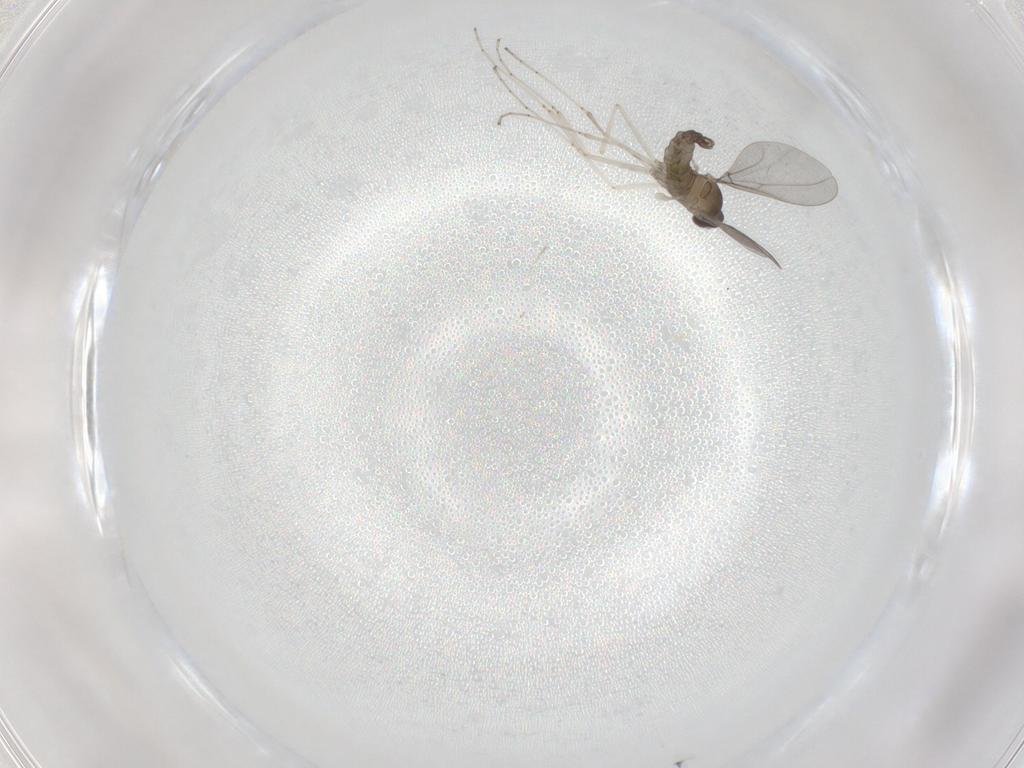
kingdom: Animalia
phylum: Arthropoda
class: Insecta
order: Diptera
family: Cecidomyiidae
